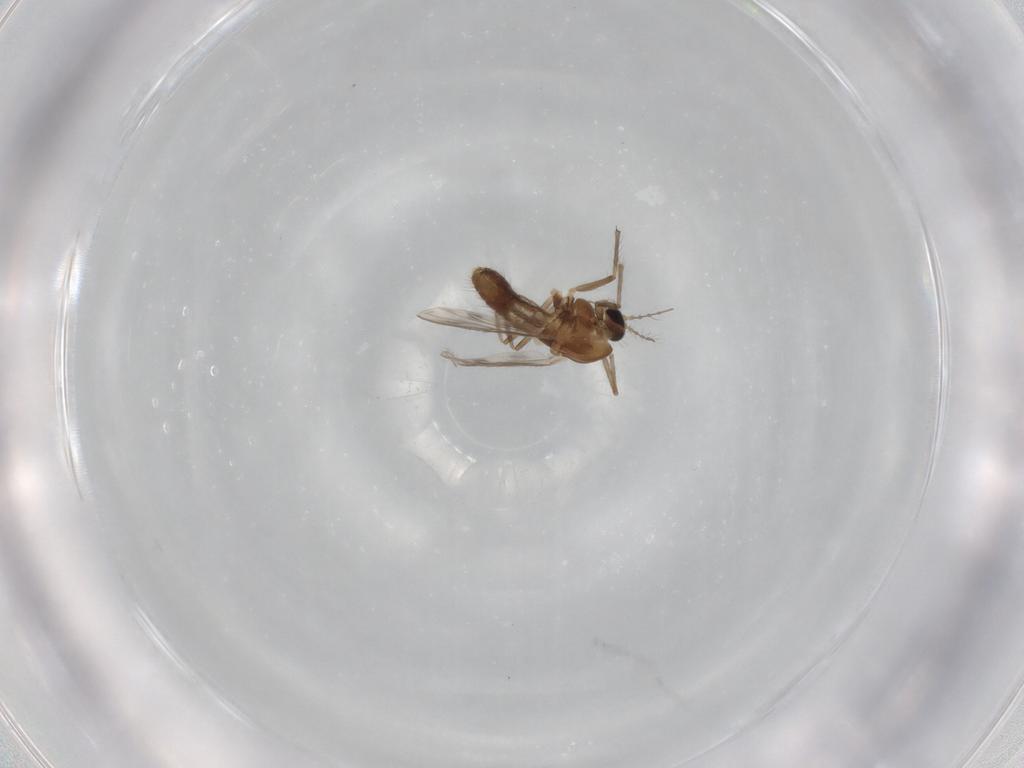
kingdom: Animalia
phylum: Arthropoda
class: Insecta
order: Diptera
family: Chironomidae
